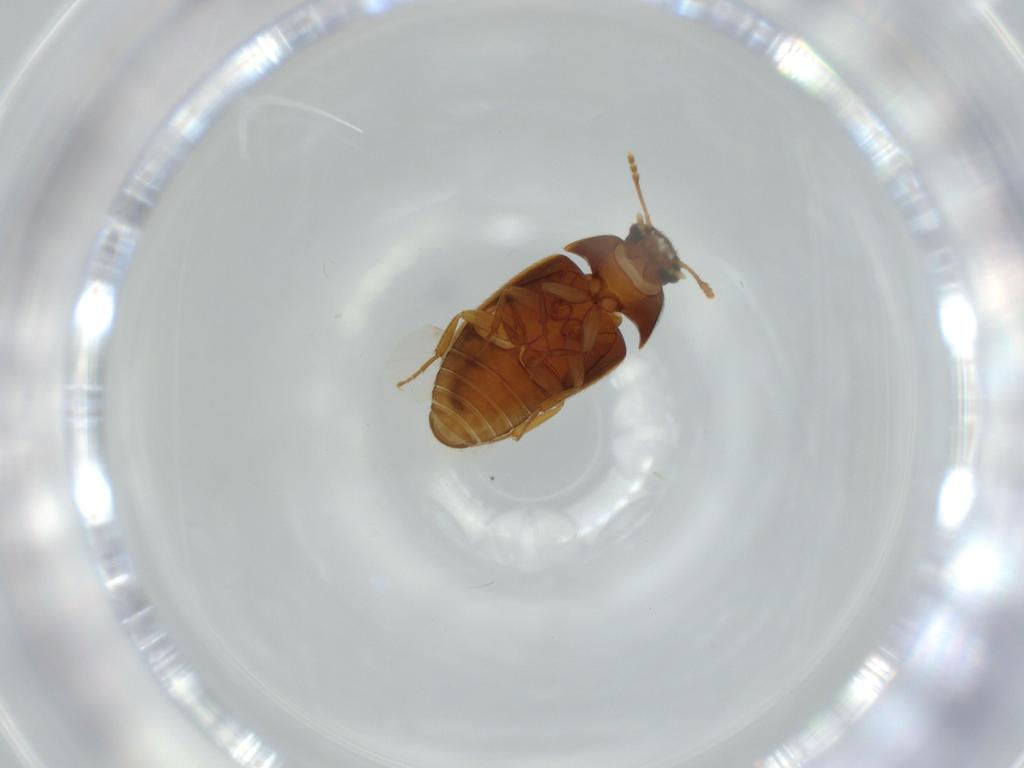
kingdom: Animalia
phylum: Arthropoda
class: Insecta
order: Coleoptera
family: Mycetophagidae
